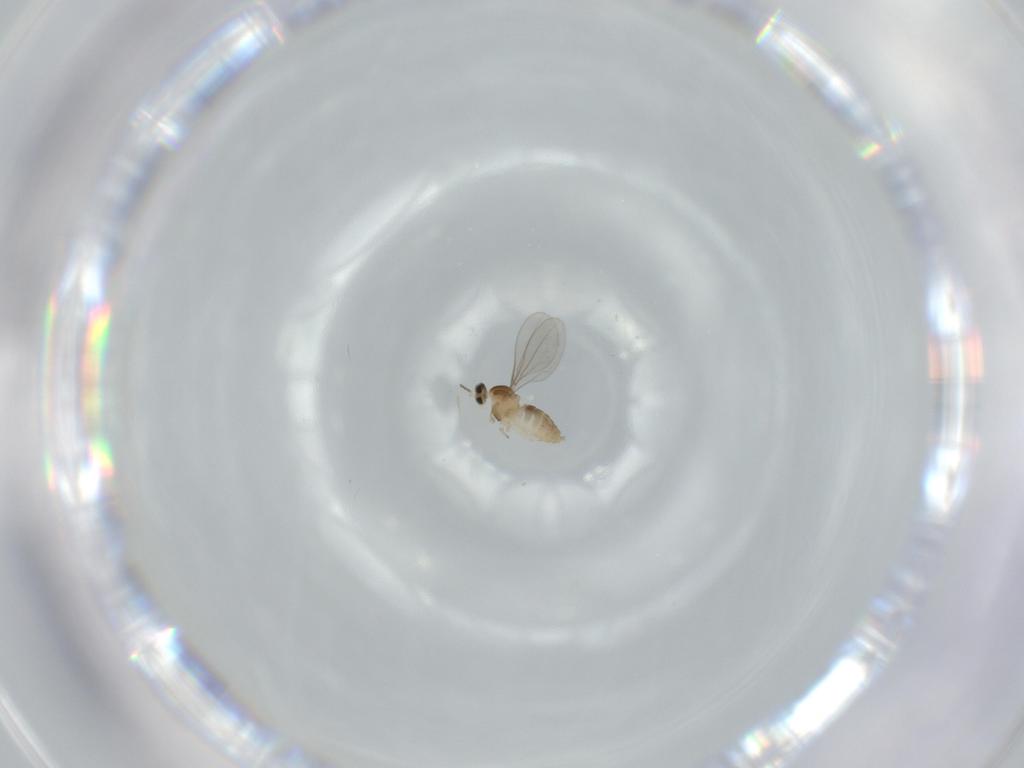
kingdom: Animalia
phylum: Arthropoda
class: Insecta
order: Diptera
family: Cecidomyiidae
